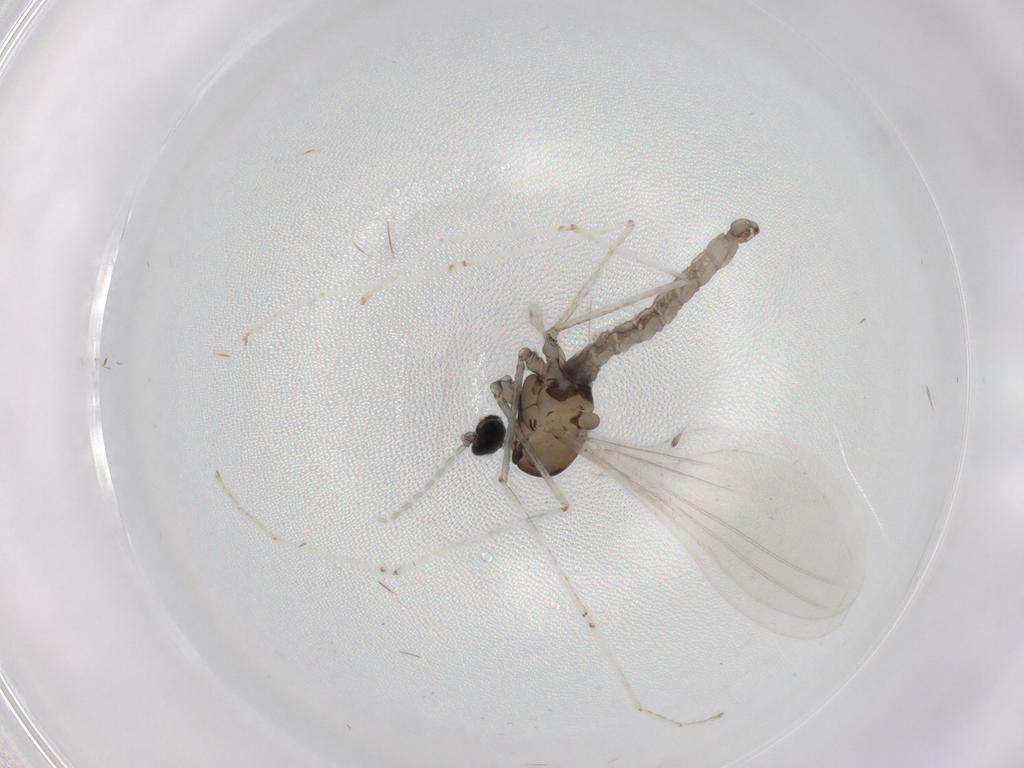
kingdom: Animalia
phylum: Arthropoda
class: Insecta
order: Diptera
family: Cecidomyiidae
